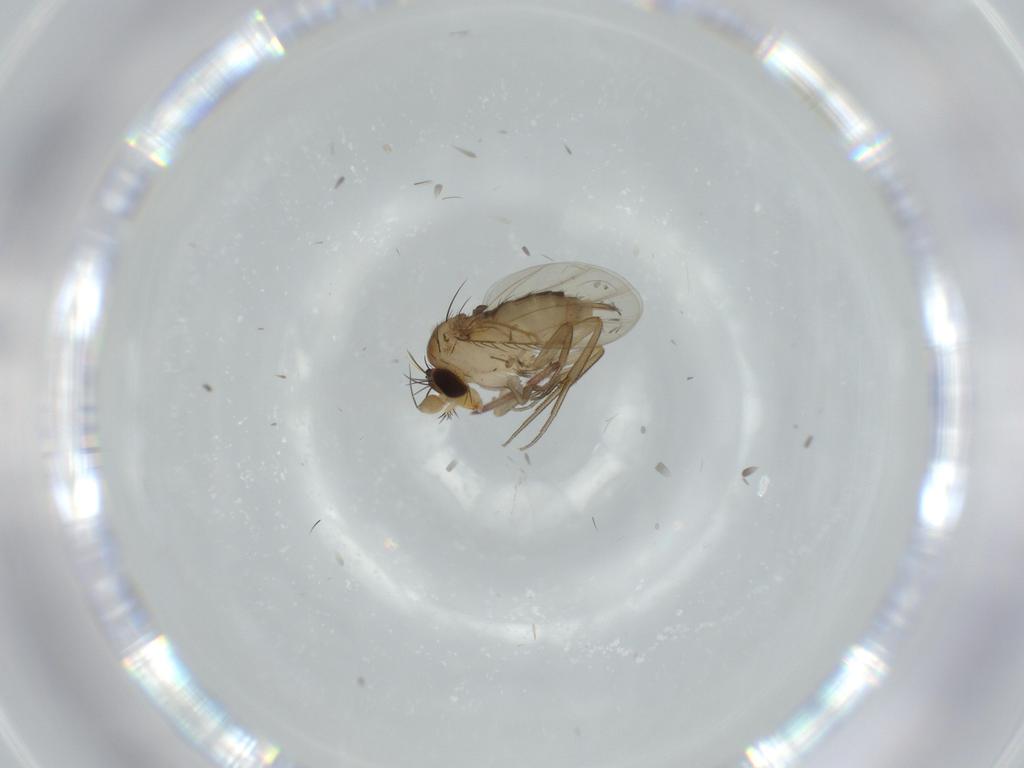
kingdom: Animalia
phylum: Arthropoda
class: Insecta
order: Diptera
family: Phoridae
